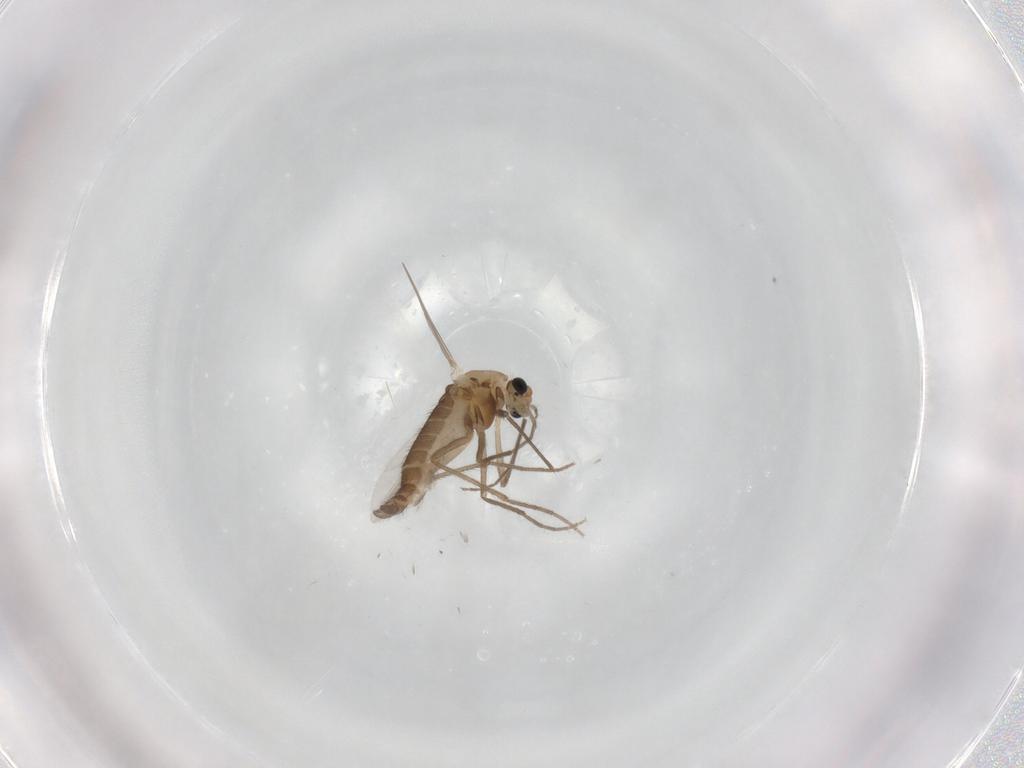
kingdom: Animalia
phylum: Arthropoda
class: Insecta
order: Diptera
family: Chironomidae
